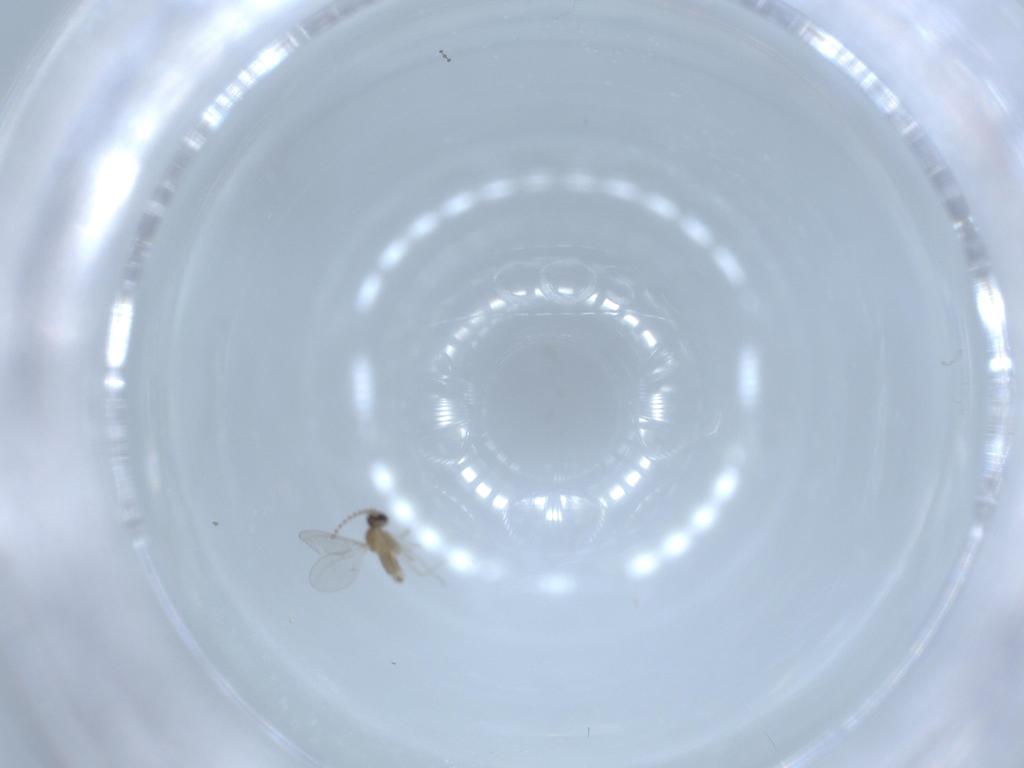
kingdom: Animalia
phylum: Arthropoda
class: Insecta
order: Diptera
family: Cecidomyiidae
